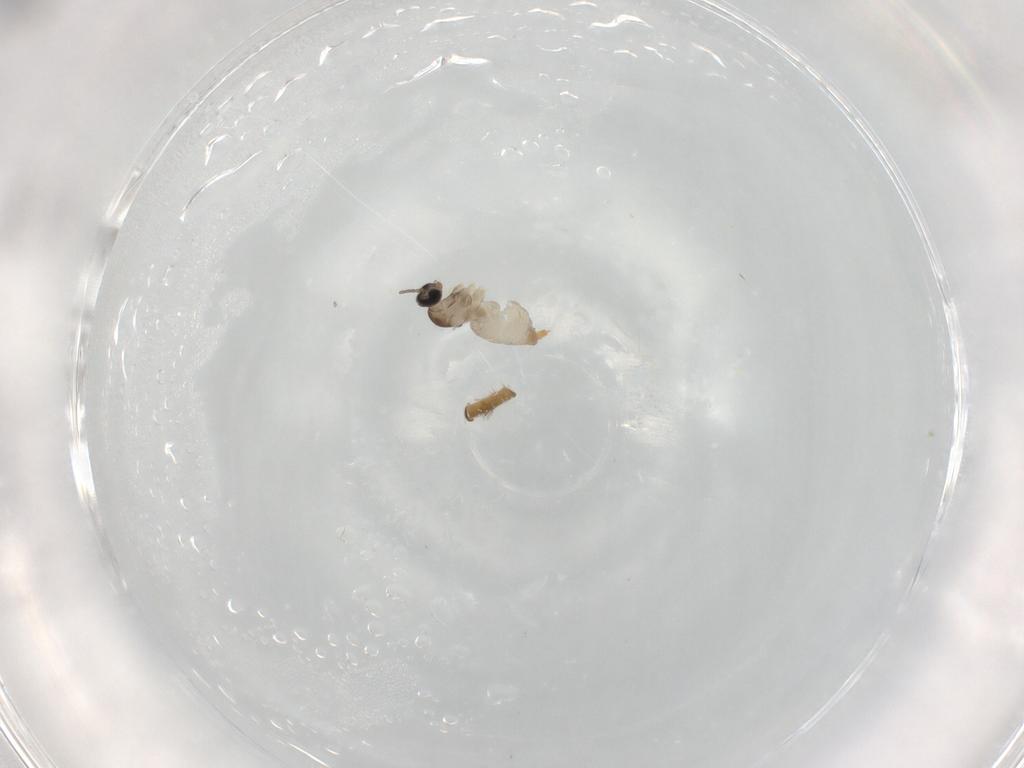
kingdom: Animalia
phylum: Arthropoda
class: Insecta
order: Diptera
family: Cecidomyiidae
